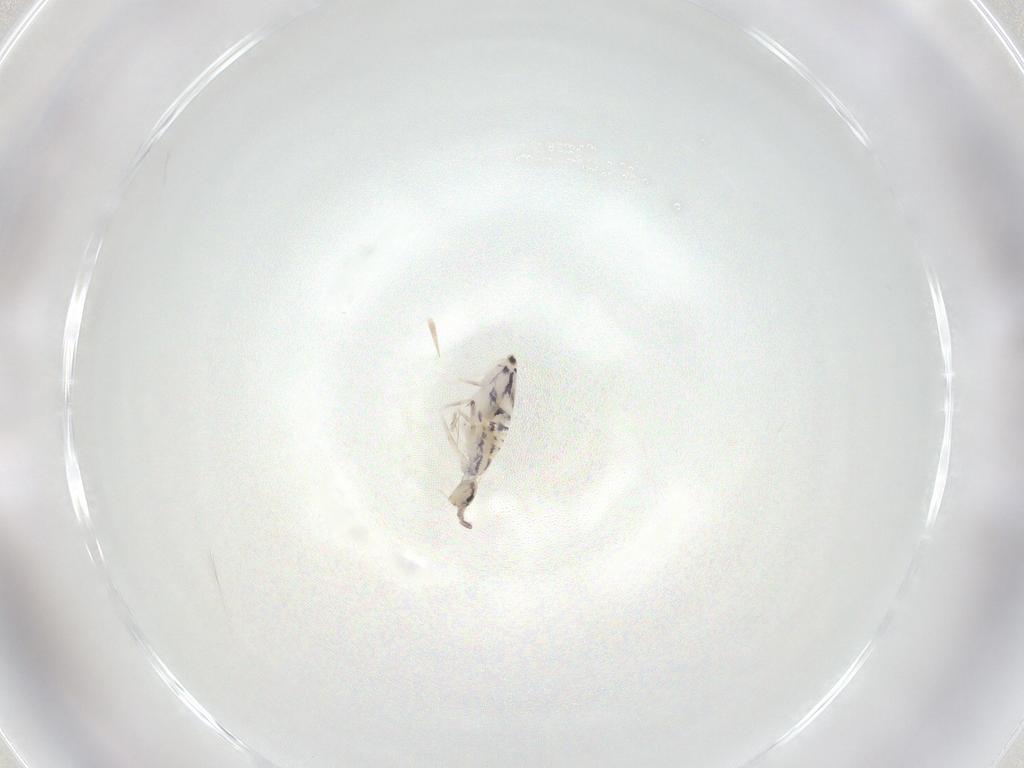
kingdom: Animalia
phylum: Arthropoda
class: Collembola
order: Entomobryomorpha
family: Entomobryidae
